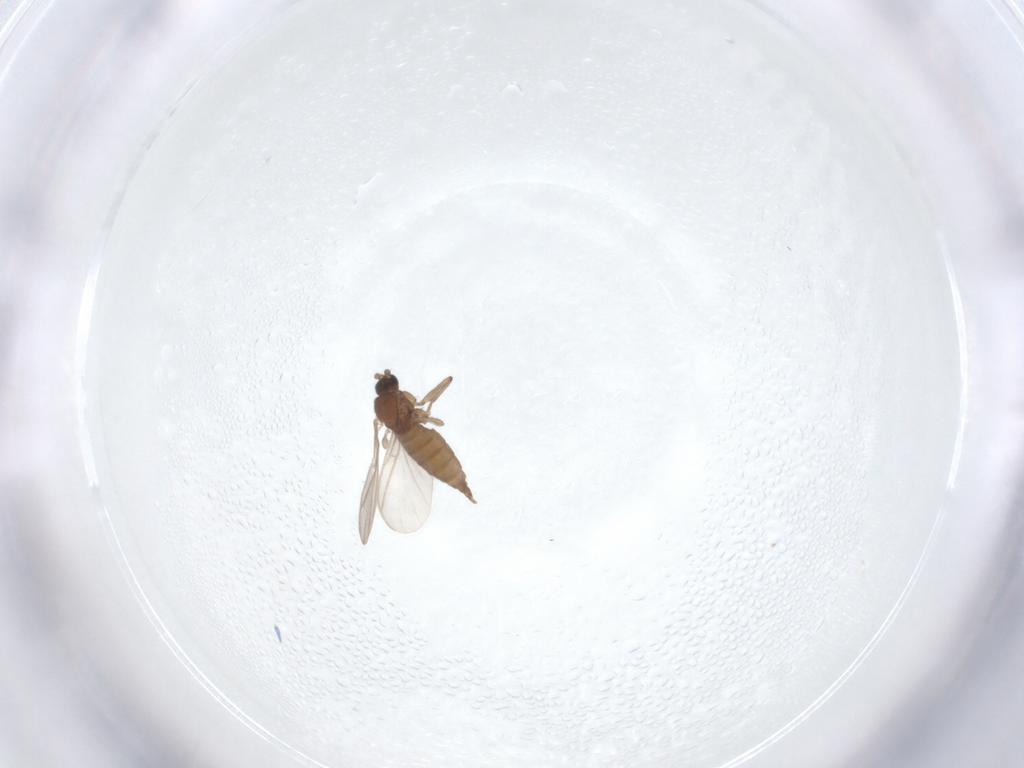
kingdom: Animalia
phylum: Arthropoda
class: Insecta
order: Diptera
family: Sciaridae
